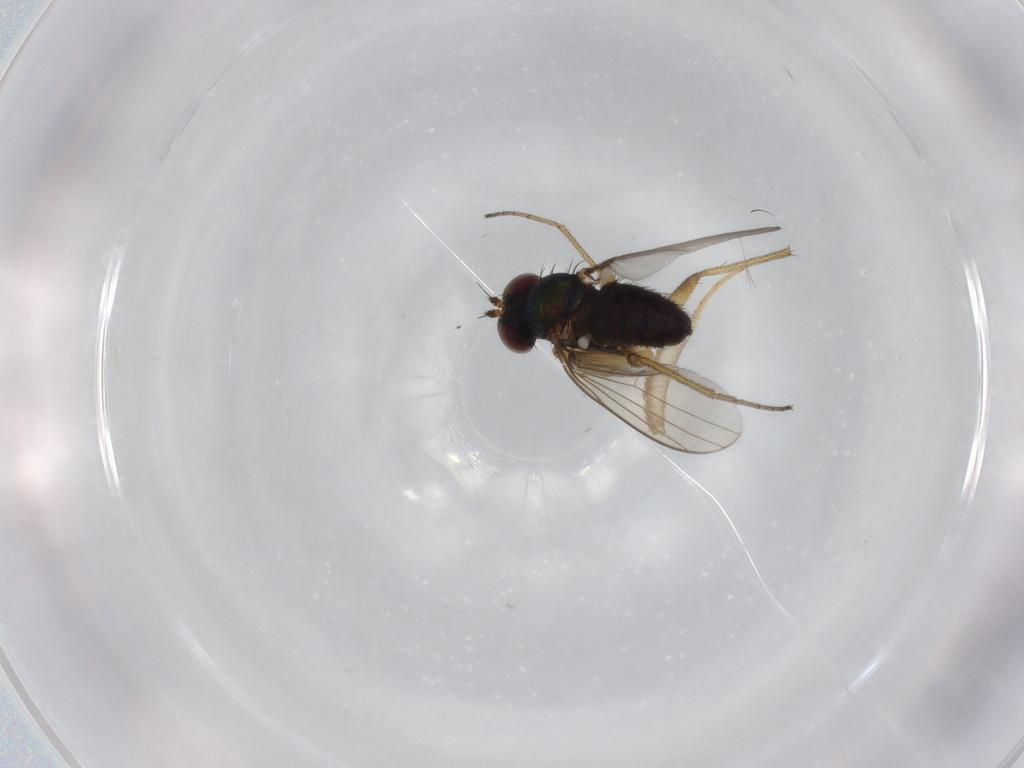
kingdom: Animalia
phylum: Arthropoda
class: Insecta
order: Diptera
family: Dolichopodidae
